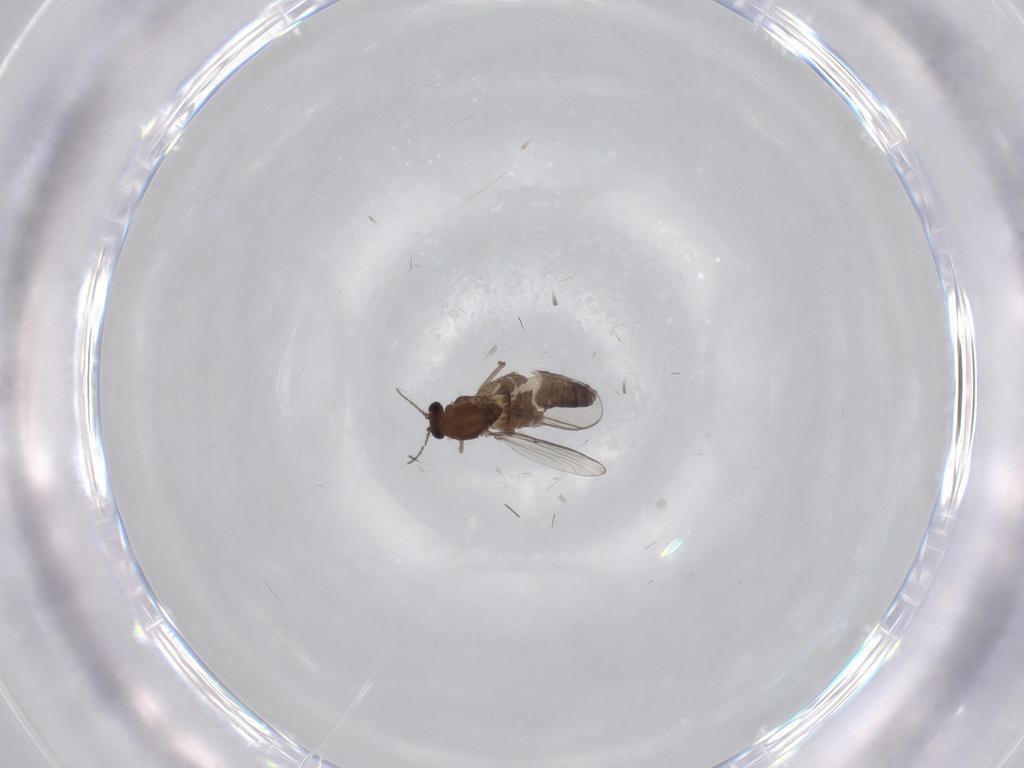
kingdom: Animalia
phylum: Arthropoda
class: Insecta
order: Diptera
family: Chironomidae
